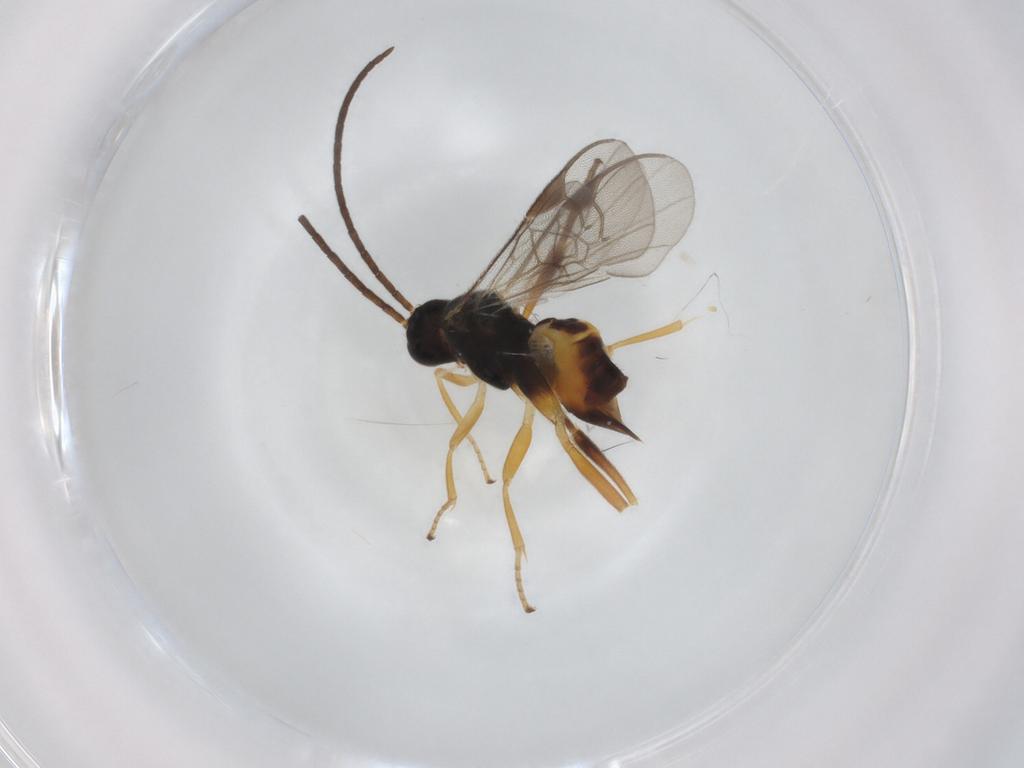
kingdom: Animalia
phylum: Arthropoda
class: Insecta
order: Hymenoptera
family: Braconidae
